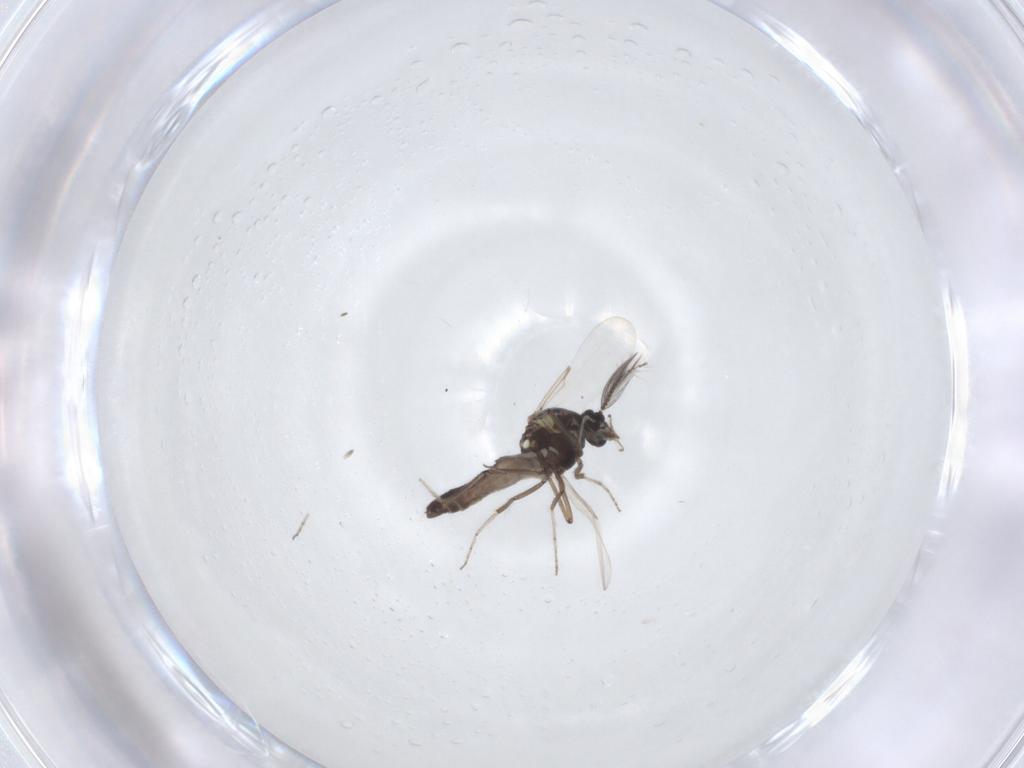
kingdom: Animalia
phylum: Arthropoda
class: Insecta
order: Diptera
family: Ceratopogonidae
